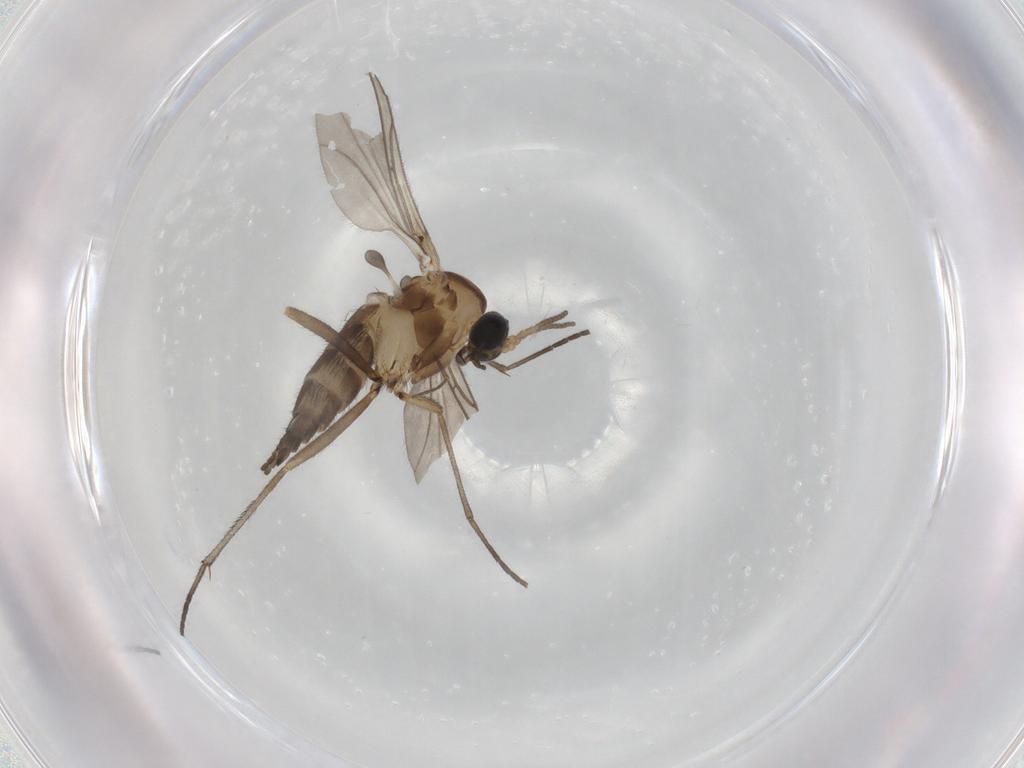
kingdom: Animalia
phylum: Arthropoda
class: Insecta
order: Diptera
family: Sciaridae
